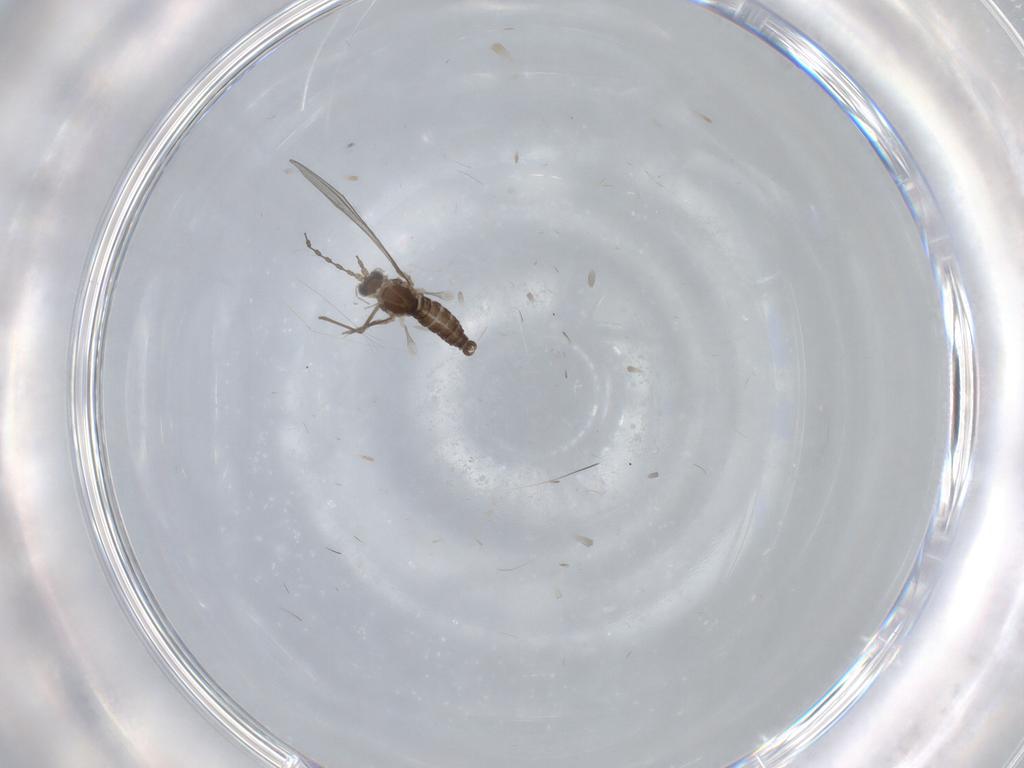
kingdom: Animalia
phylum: Arthropoda
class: Insecta
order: Diptera
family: Cecidomyiidae
